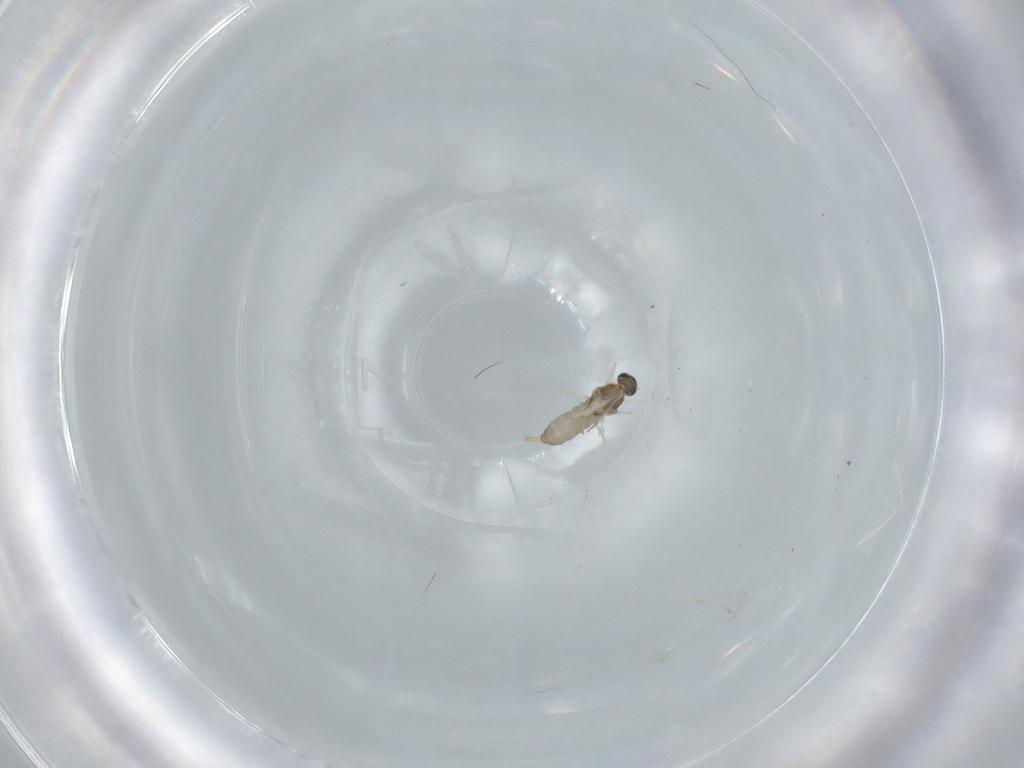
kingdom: Animalia
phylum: Arthropoda
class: Insecta
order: Diptera
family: Cecidomyiidae
